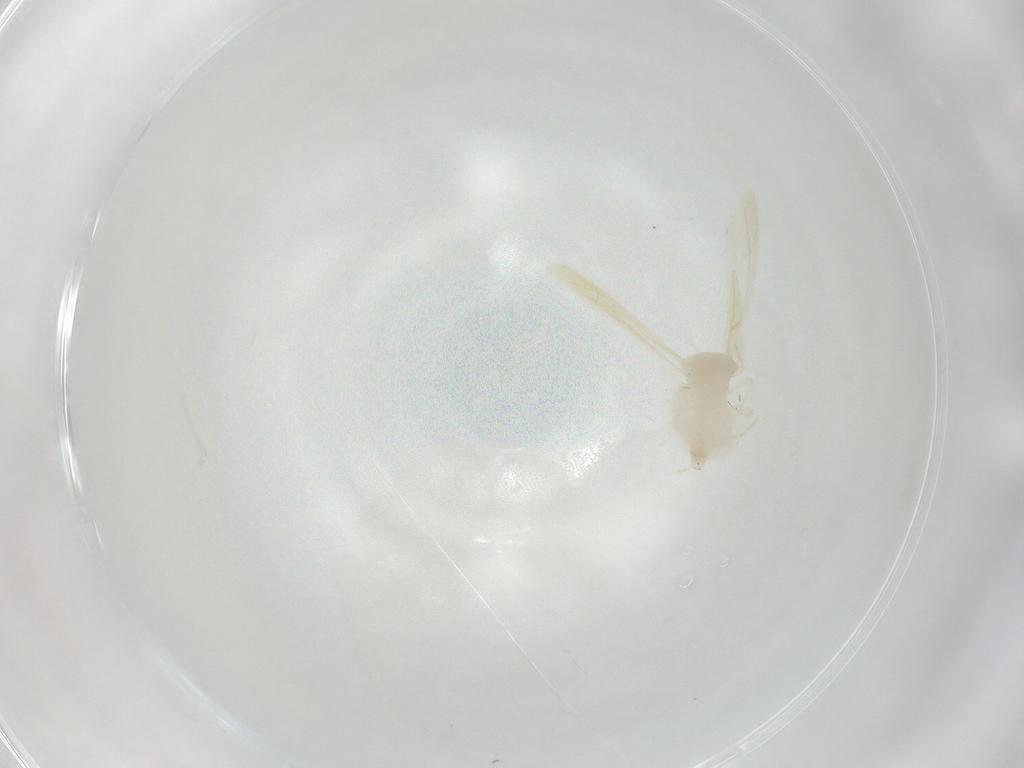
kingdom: Animalia
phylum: Arthropoda
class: Insecta
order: Hemiptera
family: Aleyrodidae
